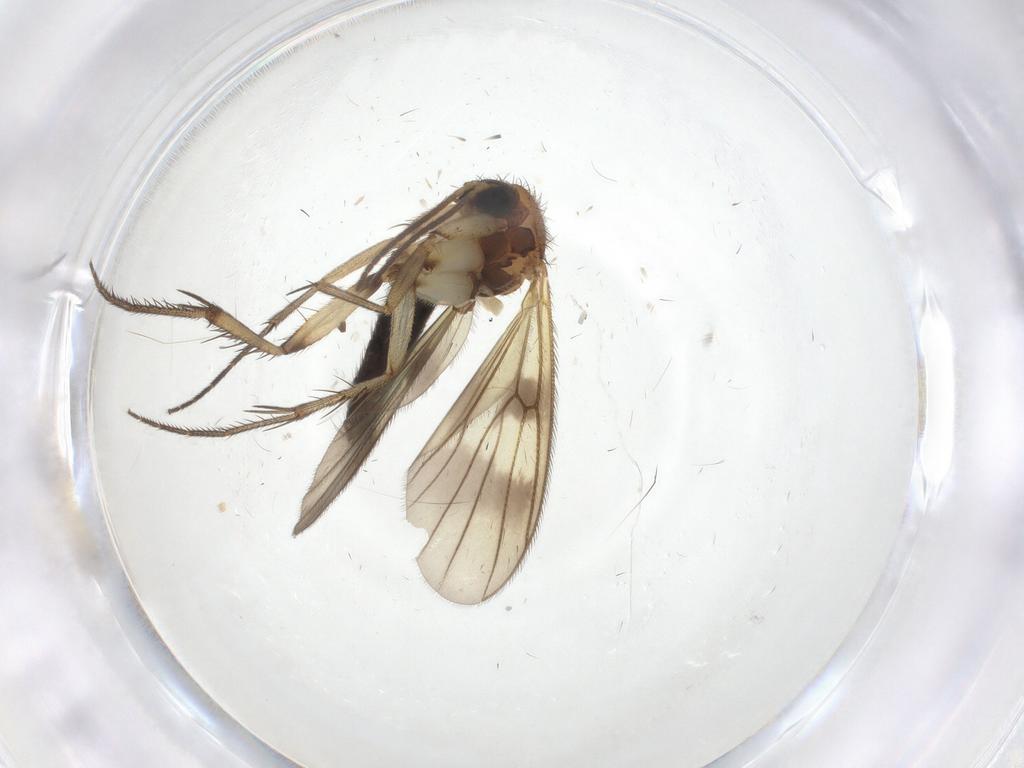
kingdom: Animalia
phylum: Arthropoda
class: Insecta
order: Diptera
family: Sciaridae
